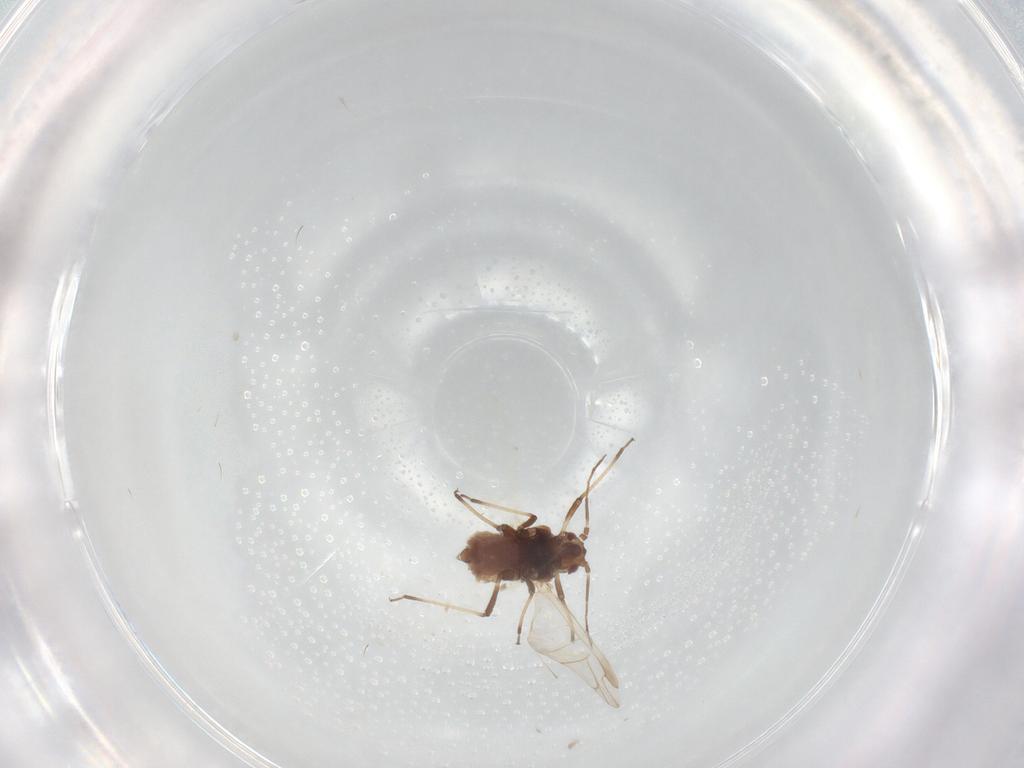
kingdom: Animalia
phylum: Arthropoda
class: Insecta
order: Hemiptera
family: Aphididae
